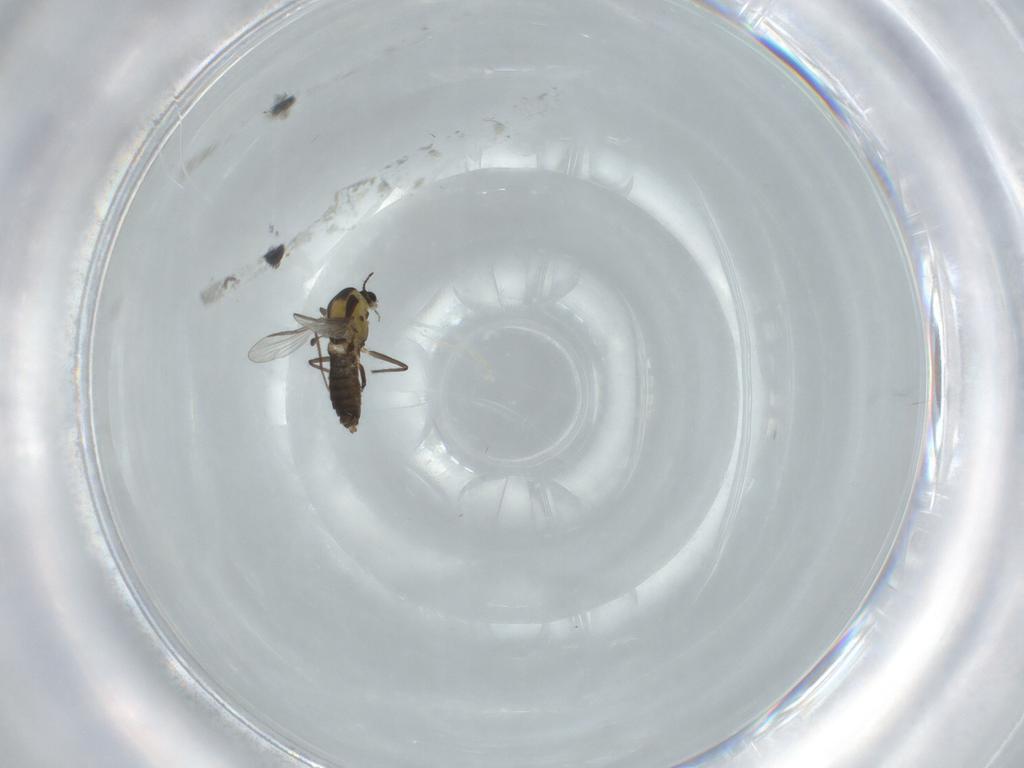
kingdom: Animalia
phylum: Arthropoda
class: Insecta
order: Diptera
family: Chironomidae
